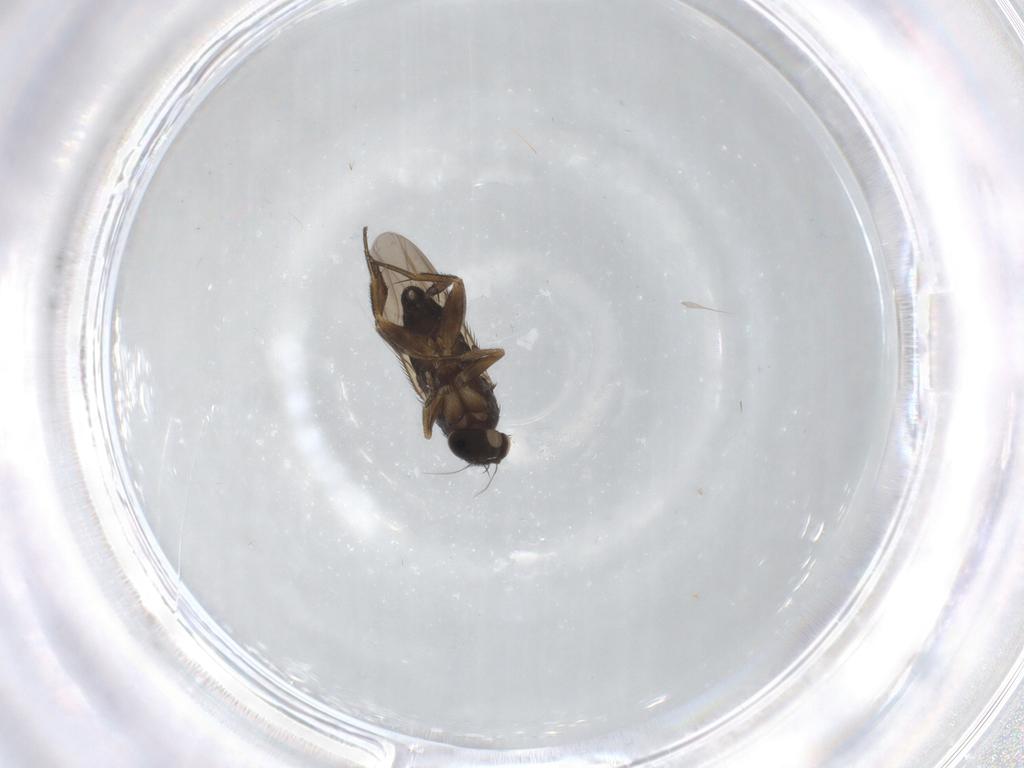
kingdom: Animalia
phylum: Arthropoda
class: Insecta
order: Diptera
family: Phoridae
